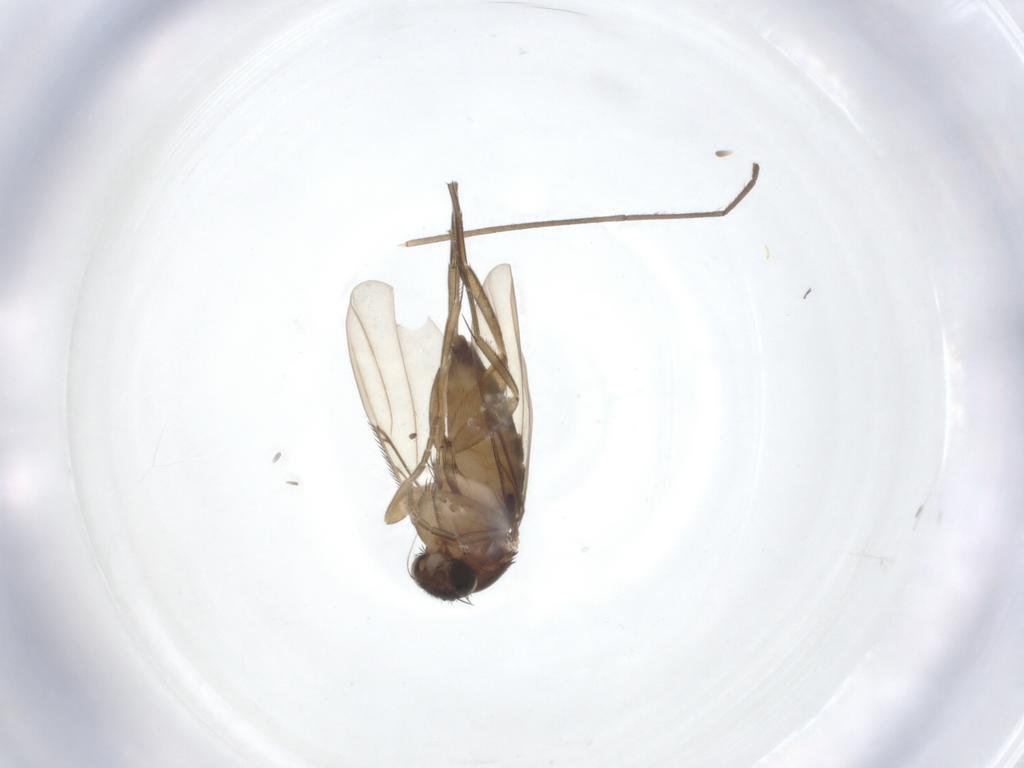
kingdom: Animalia
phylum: Arthropoda
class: Insecta
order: Diptera
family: Phoridae
